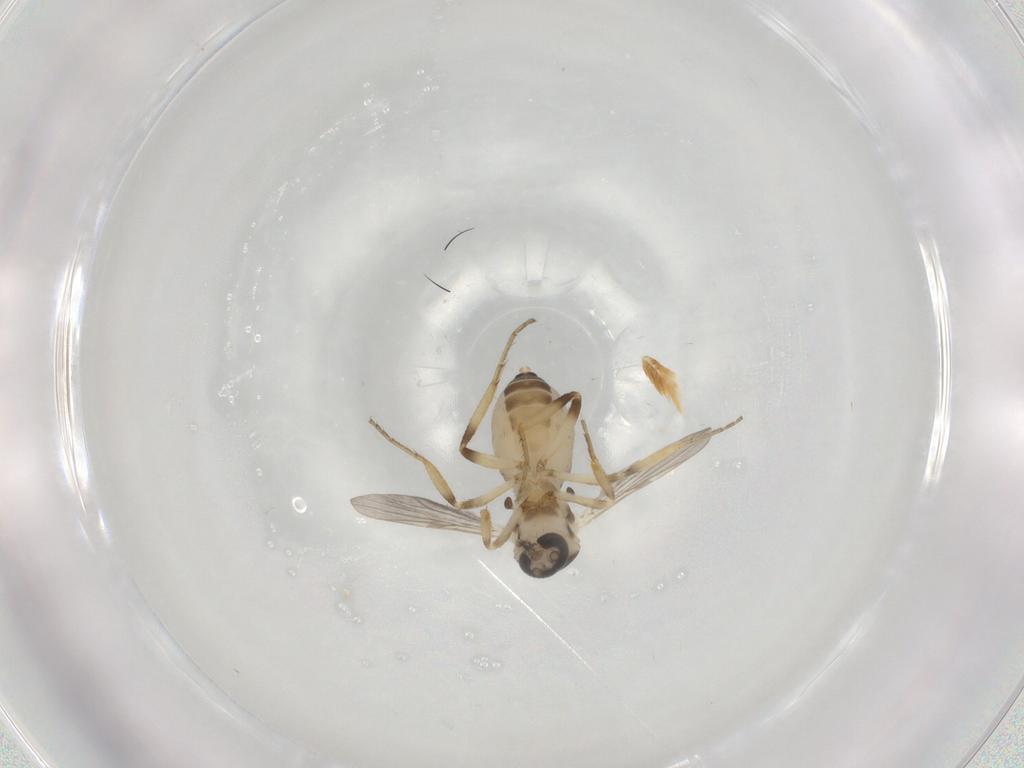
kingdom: Animalia
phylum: Arthropoda
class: Insecta
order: Diptera
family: Ceratopogonidae
